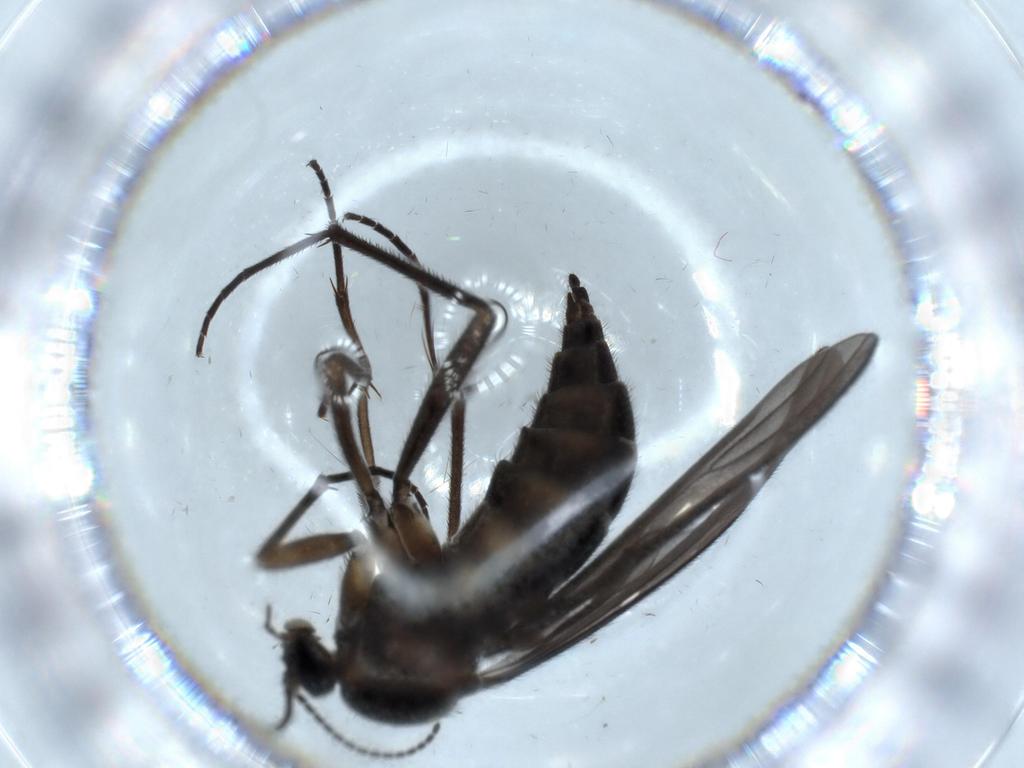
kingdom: Animalia
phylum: Arthropoda
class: Insecta
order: Diptera
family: Sciaridae
